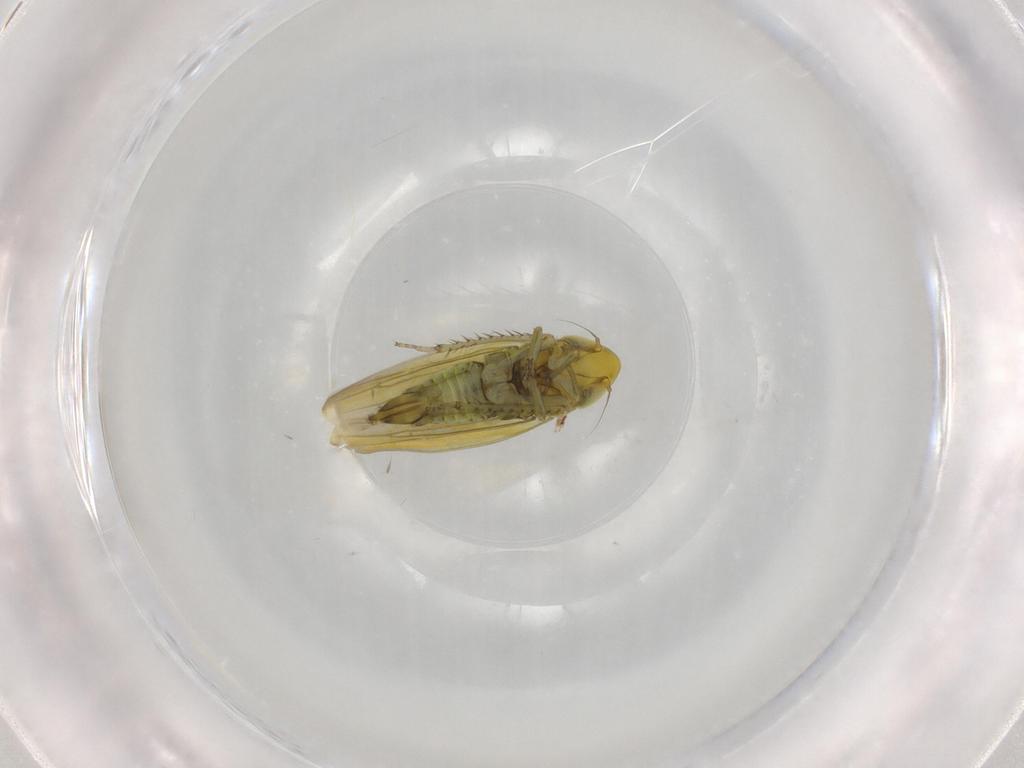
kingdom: Animalia
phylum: Arthropoda
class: Insecta
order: Hemiptera
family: Cicadellidae
